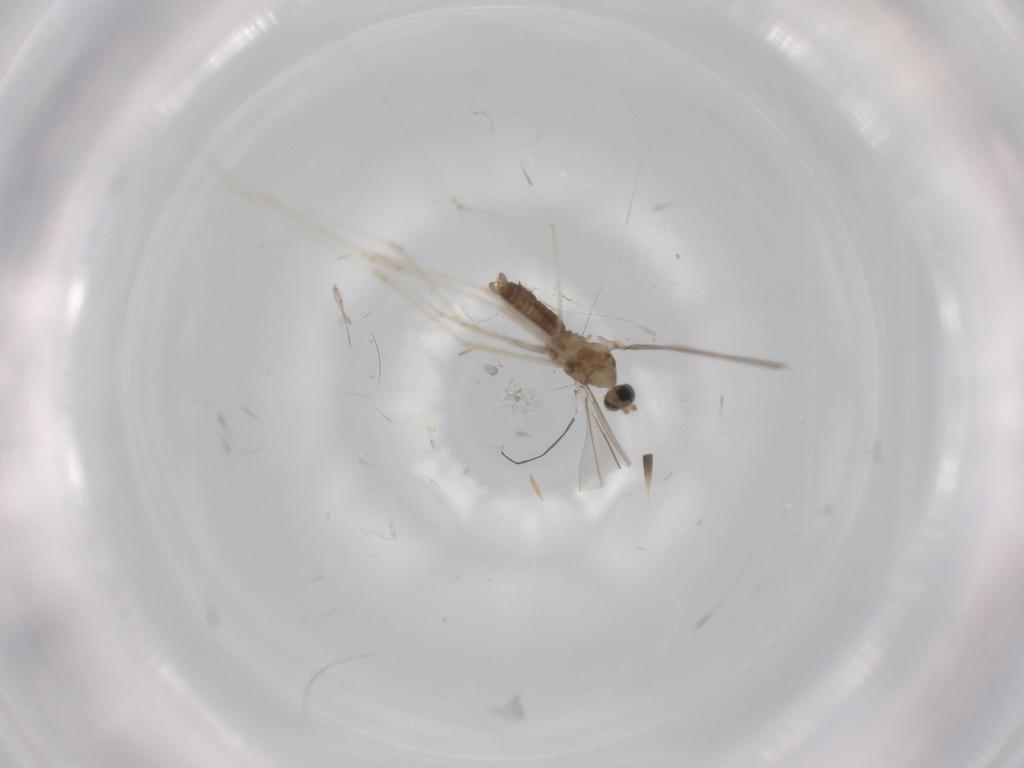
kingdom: Animalia
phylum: Arthropoda
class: Insecta
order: Diptera
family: Cecidomyiidae
